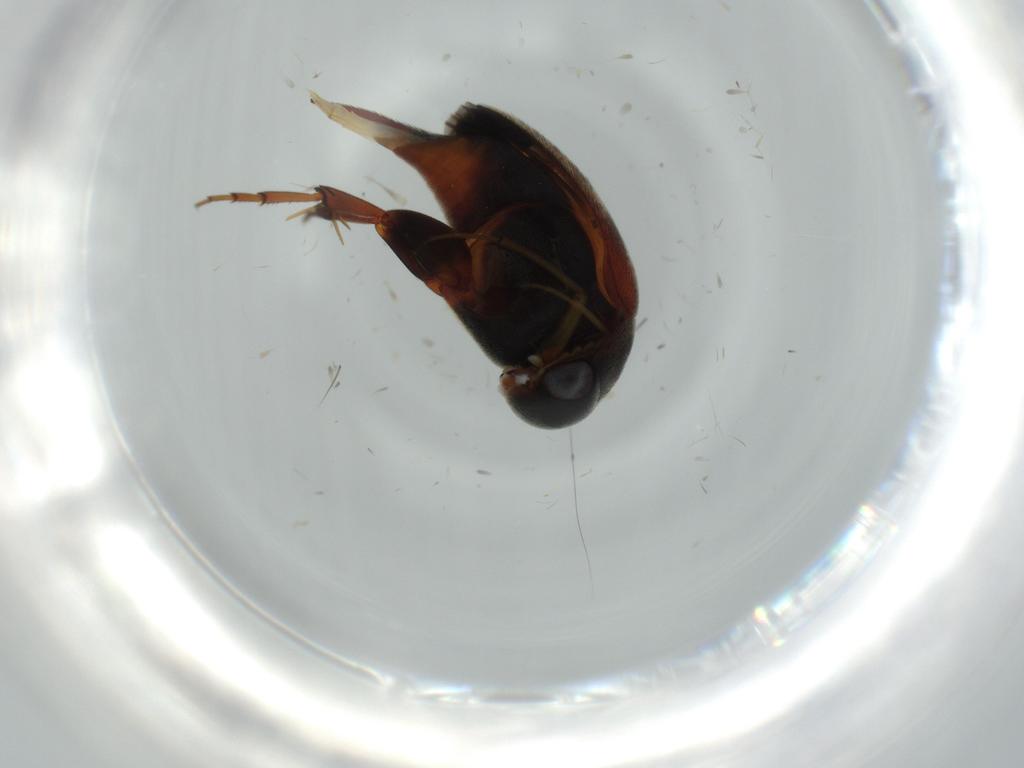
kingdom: Animalia
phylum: Arthropoda
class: Insecta
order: Coleoptera
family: Mordellidae
